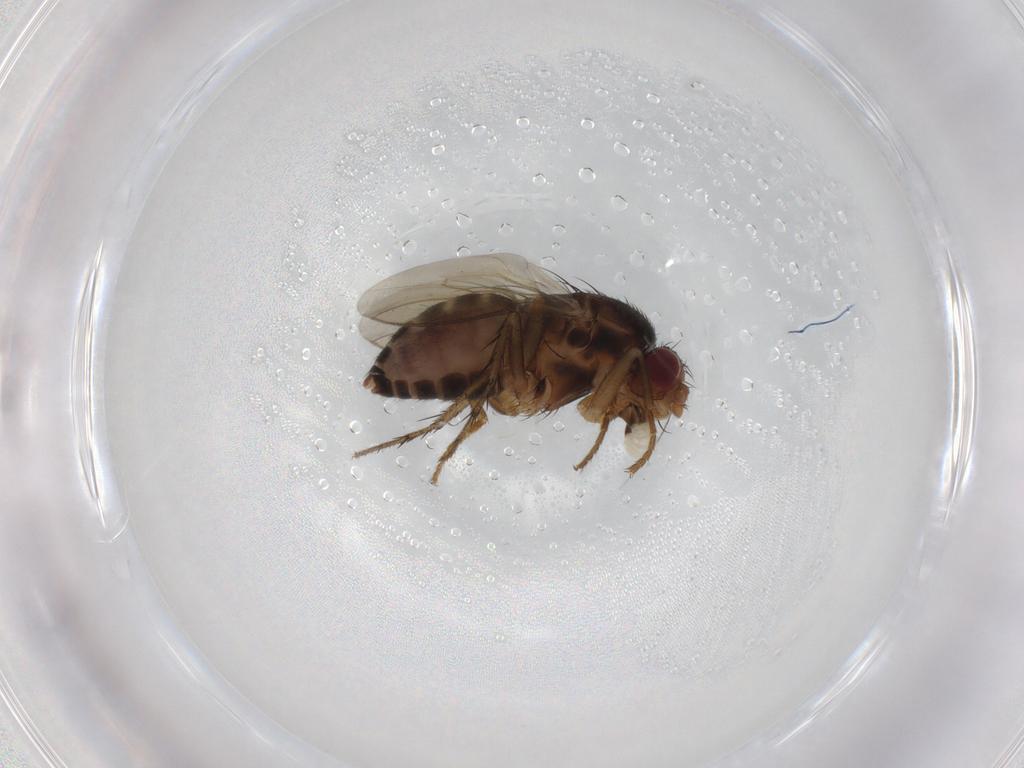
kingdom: Animalia
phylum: Arthropoda
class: Insecta
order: Diptera
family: Sphaeroceridae
